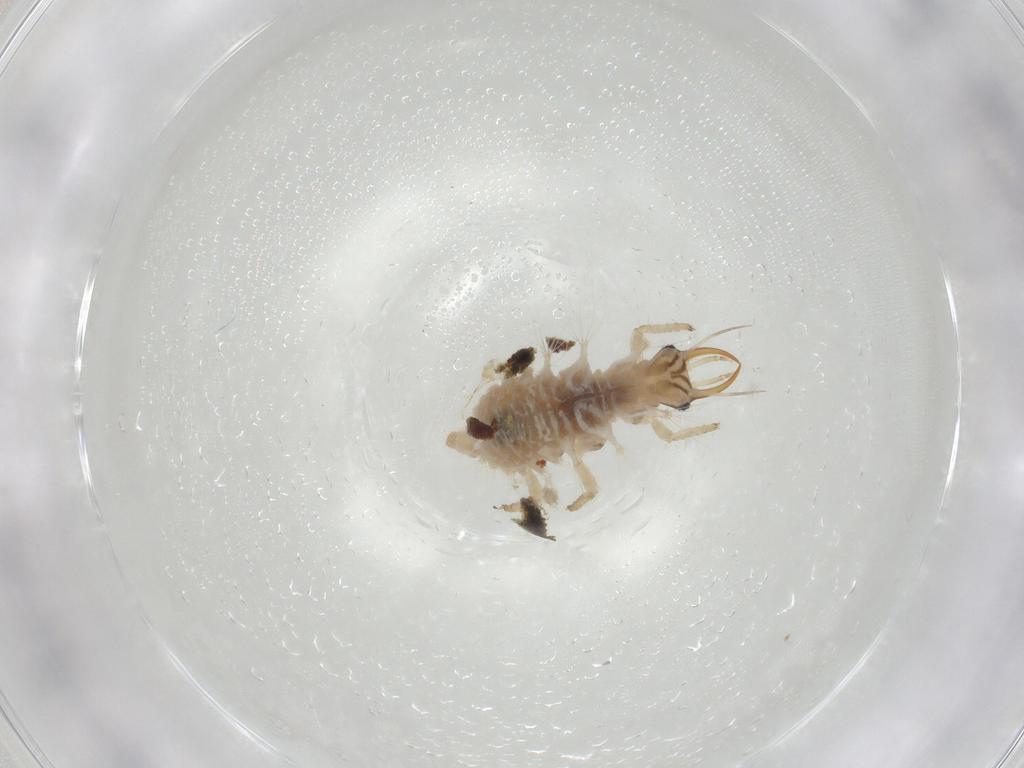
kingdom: Animalia
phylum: Arthropoda
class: Insecta
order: Neuroptera
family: Chrysopidae
